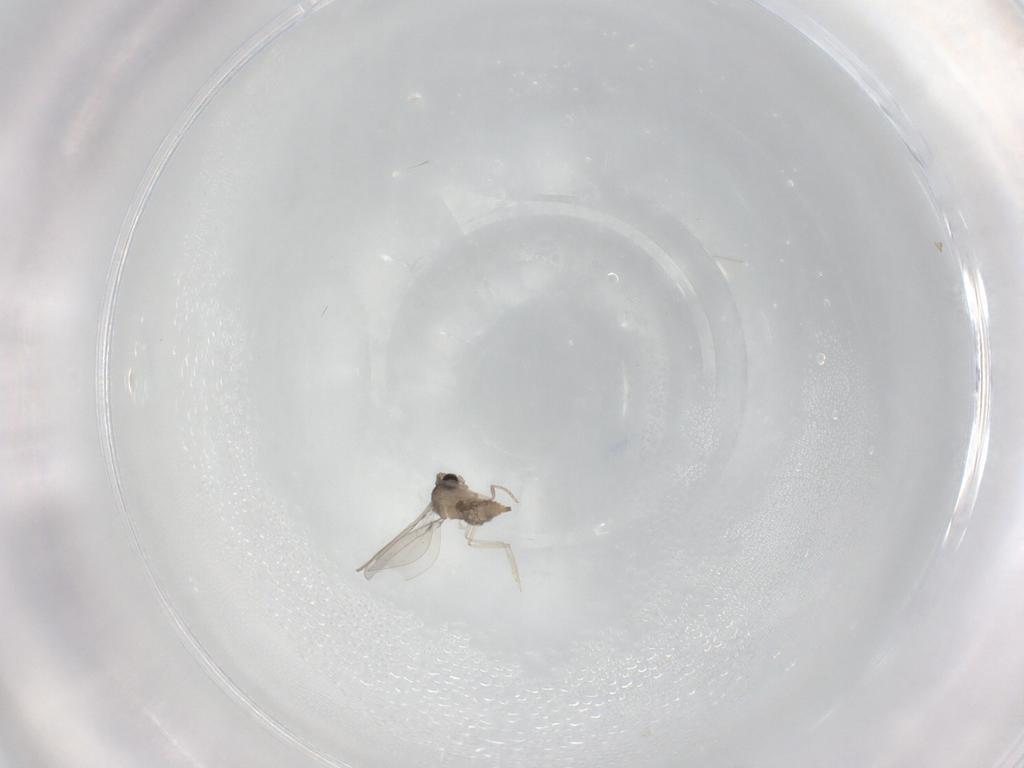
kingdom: Animalia
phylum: Arthropoda
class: Insecta
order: Diptera
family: Cecidomyiidae
